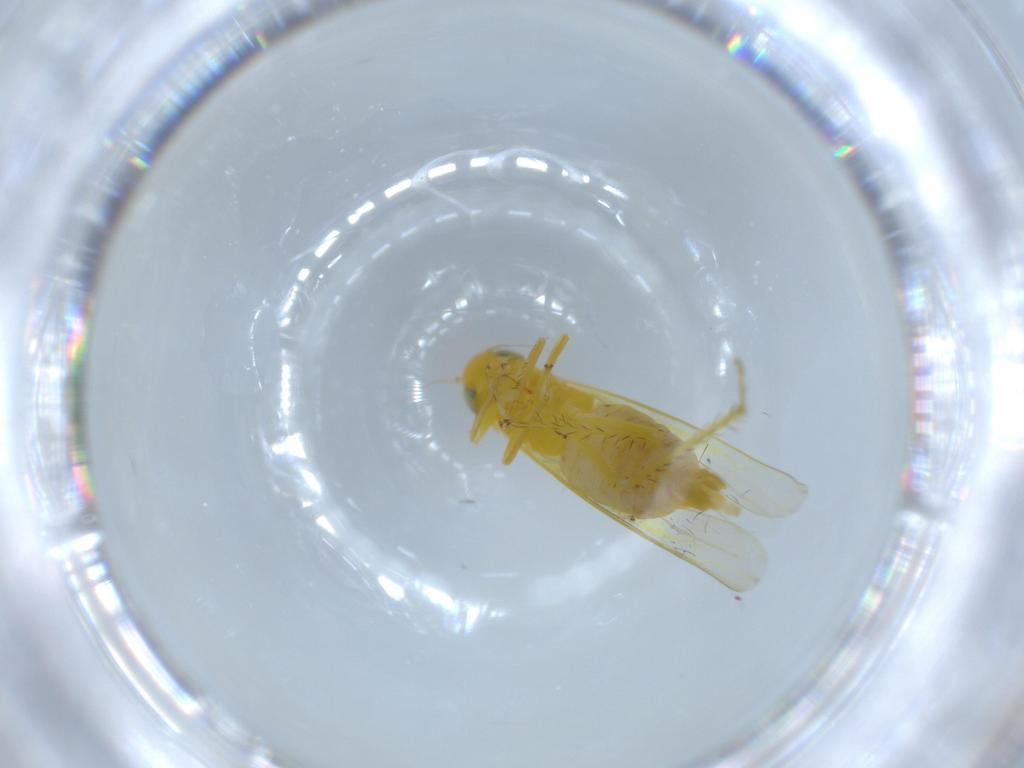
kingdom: Animalia
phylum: Arthropoda
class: Insecta
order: Hemiptera
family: Cicadellidae
